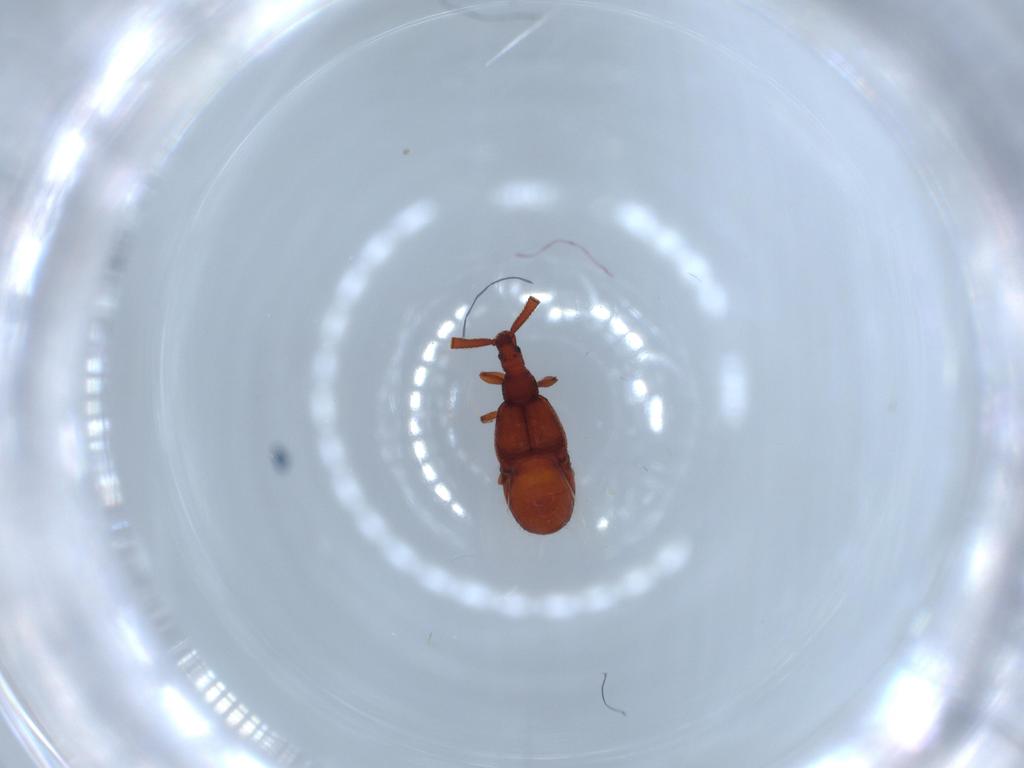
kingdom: Animalia
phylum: Arthropoda
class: Insecta
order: Coleoptera
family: Staphylinidae
